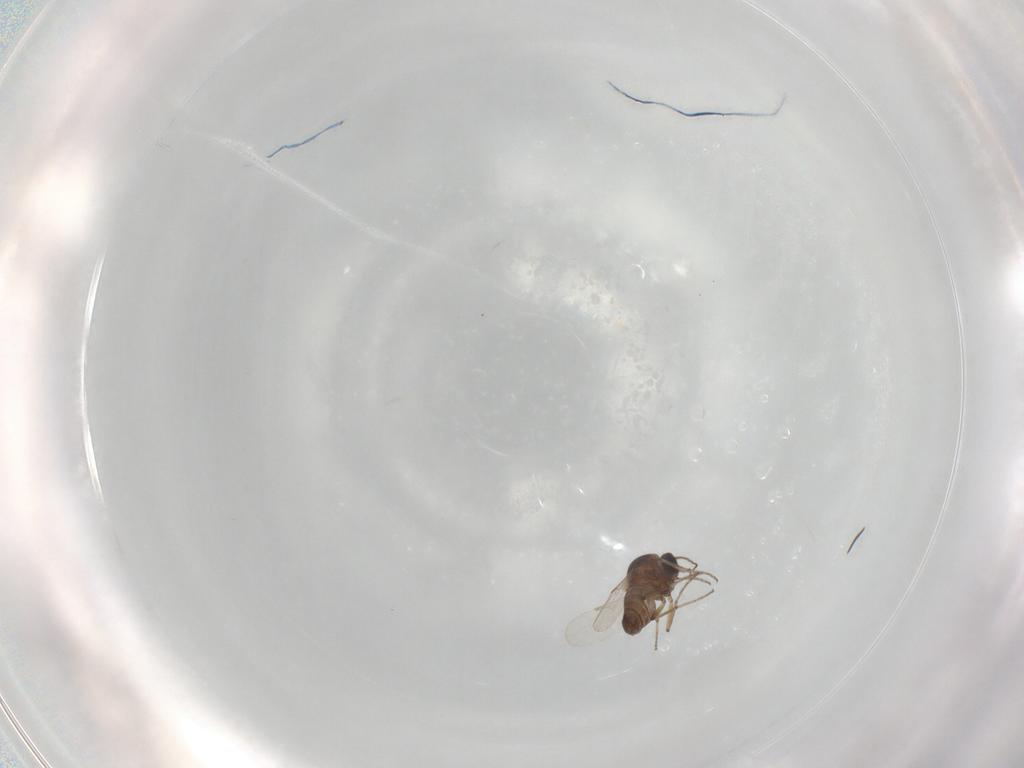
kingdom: Animalia
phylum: Arthropoda
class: Insecta
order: Diptera
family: Ceratopogonidae
